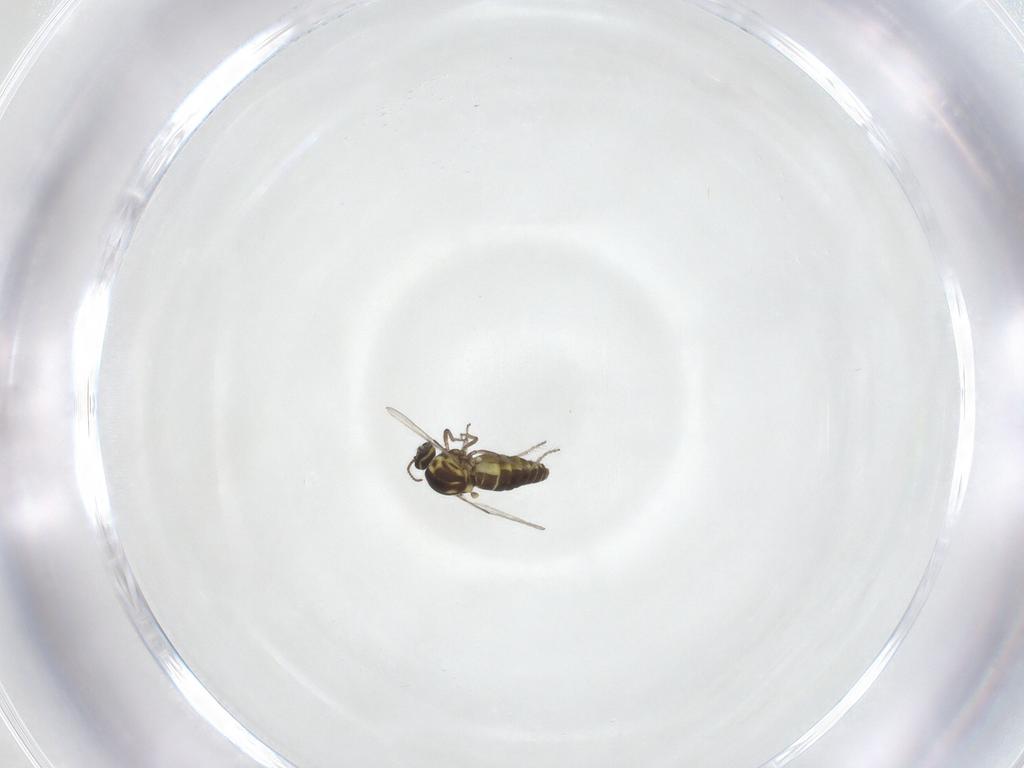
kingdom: Animalia
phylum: Arthropoda
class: Insecta
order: Diptera
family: Ceratopogonidae
